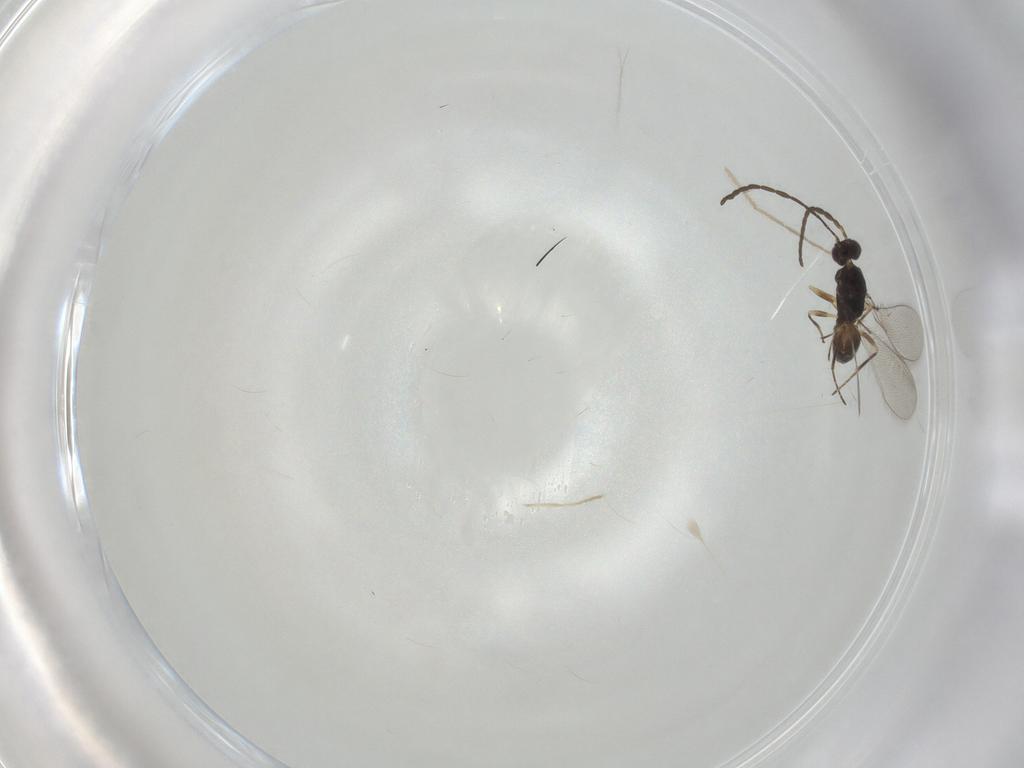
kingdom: Animalia
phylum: Arthropoda
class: Insecta
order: Hymenoptera
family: Mymaridae
